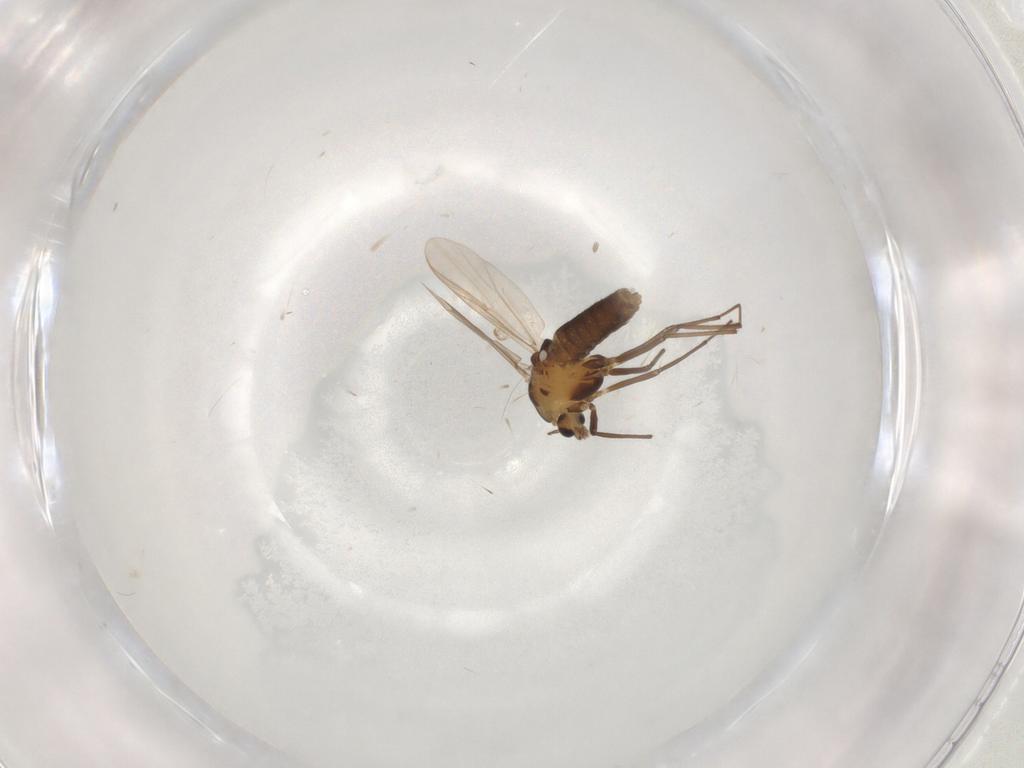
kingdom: Animalia
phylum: Arthropoda
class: Insecta
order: Diptera
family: Chironomidae
